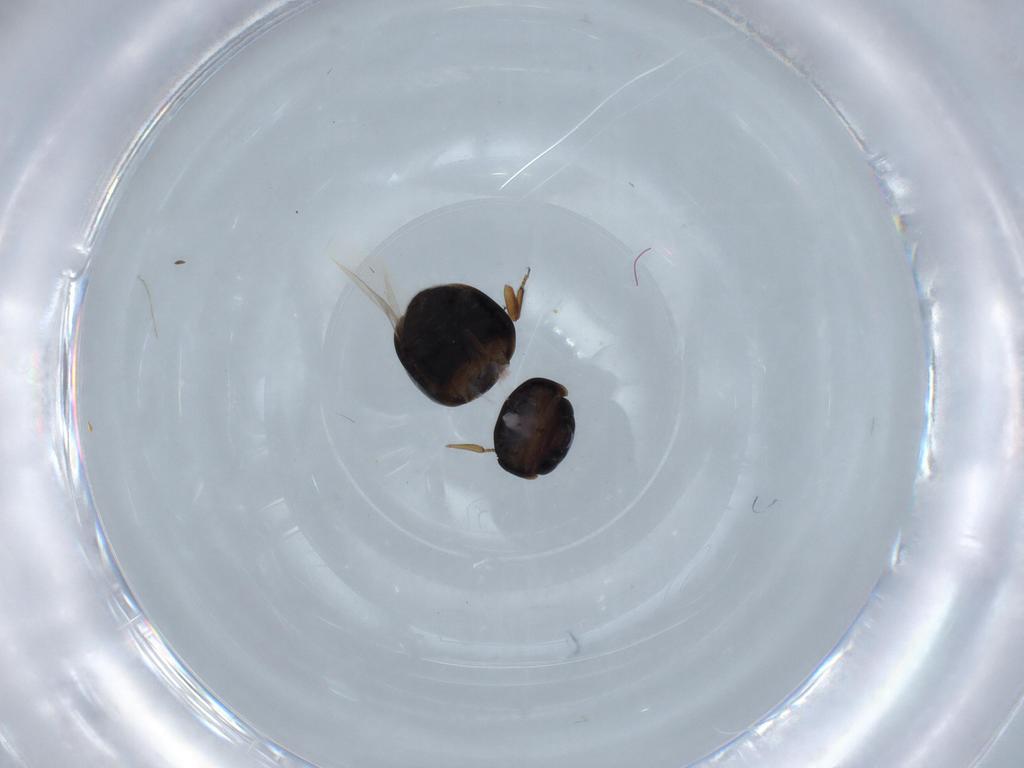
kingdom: Animalia
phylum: Arthropoda
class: Insecta
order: Coleoptera
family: Cybocephalidae
